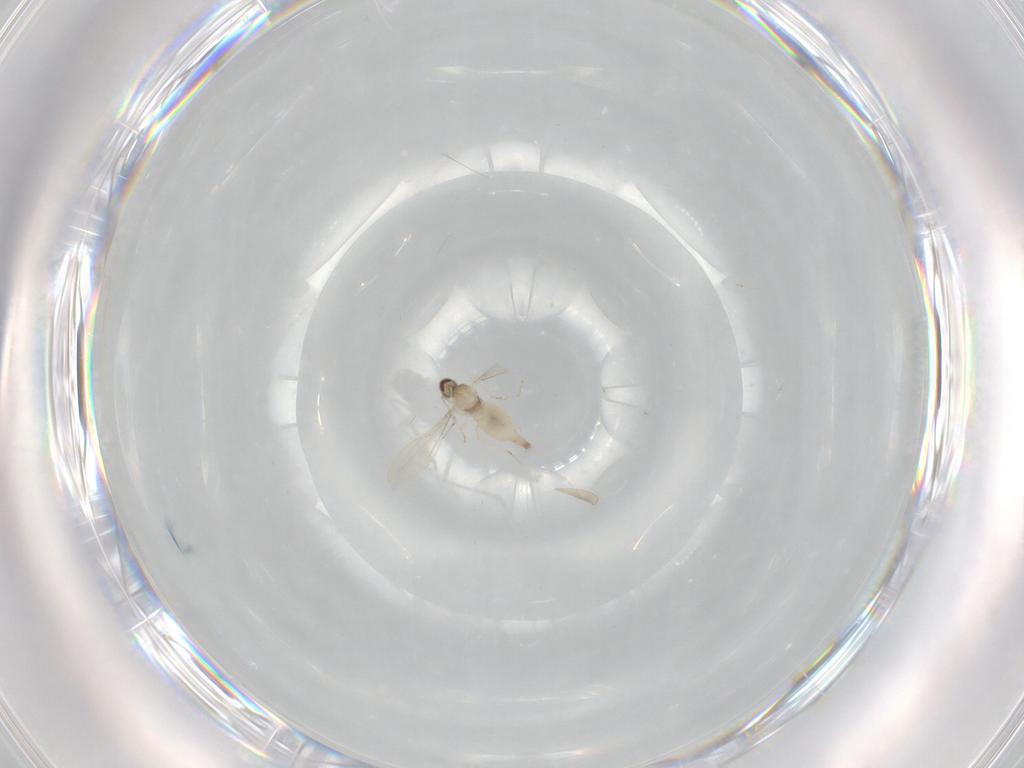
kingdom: Animalia
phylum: Arthropoda
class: Insecta
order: Diptera
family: Cecidomyiidae
